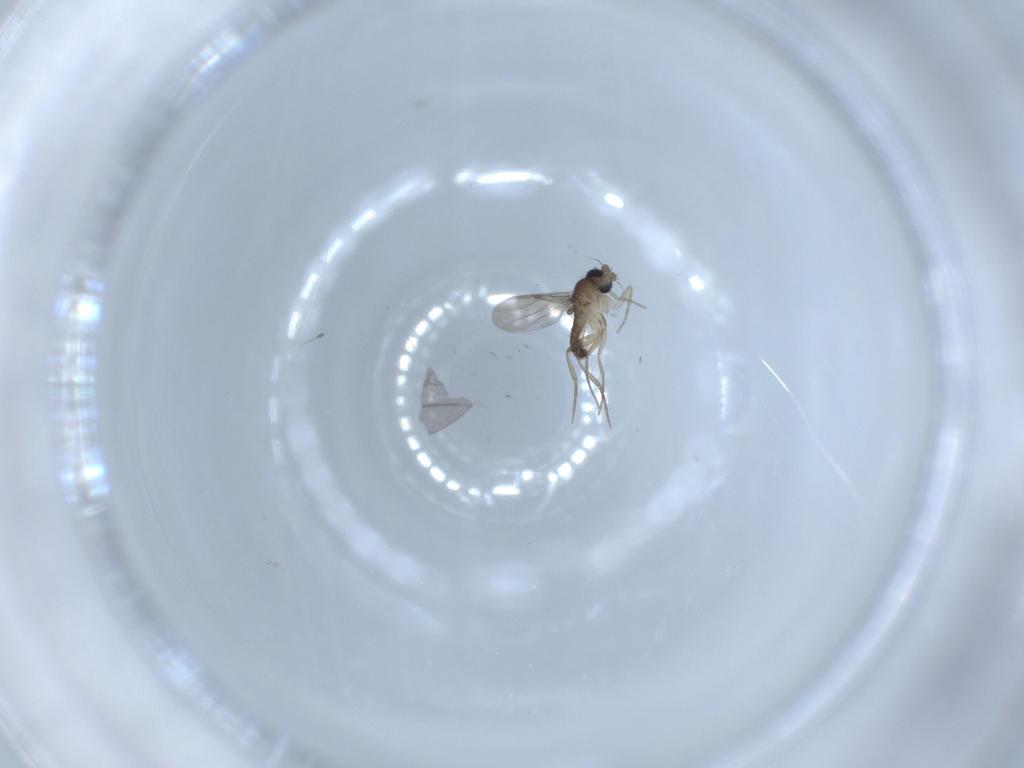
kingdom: Animalia
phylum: Arthropoda
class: Insecta
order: Diptera
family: Phoridae
